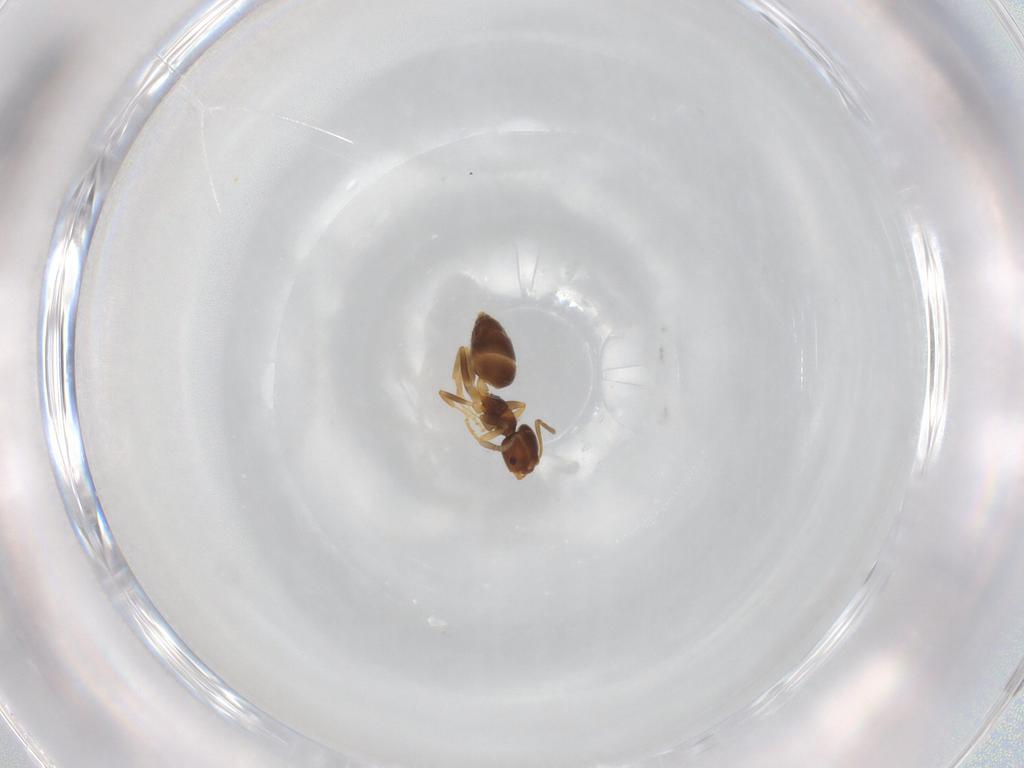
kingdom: Animalia
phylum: Arthropoda
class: Insecta
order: Hymenoptera
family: Formicidae
